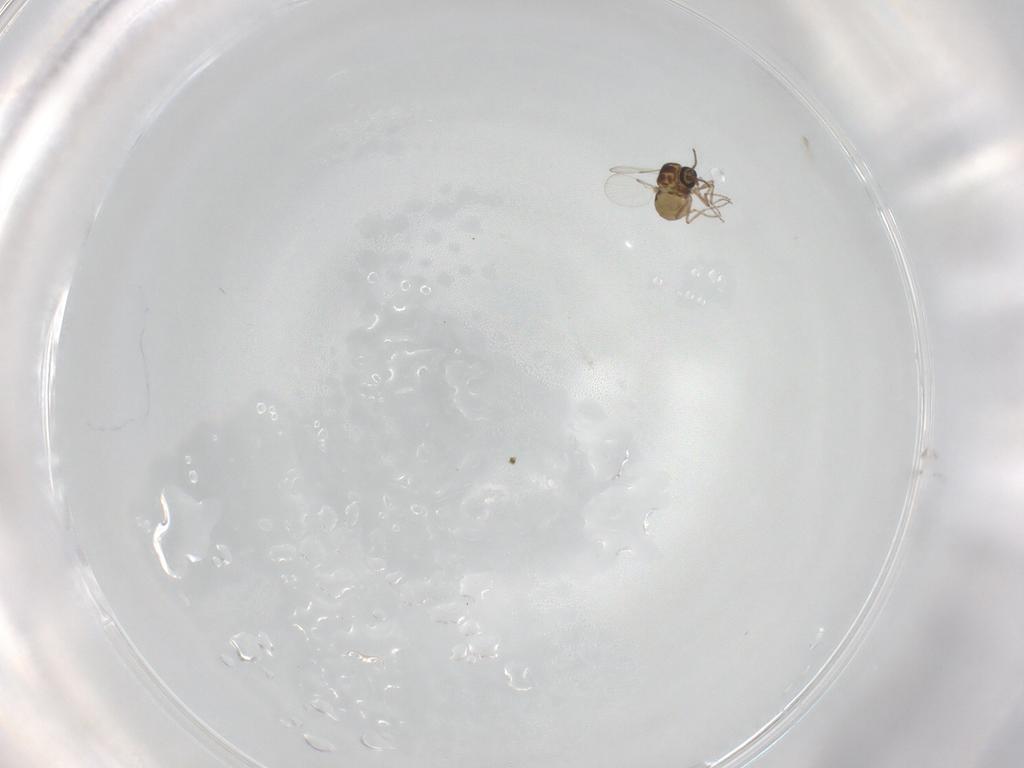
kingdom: Animalia
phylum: Arthropoda
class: Insecta
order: Diptera
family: Ceratopogonidae
